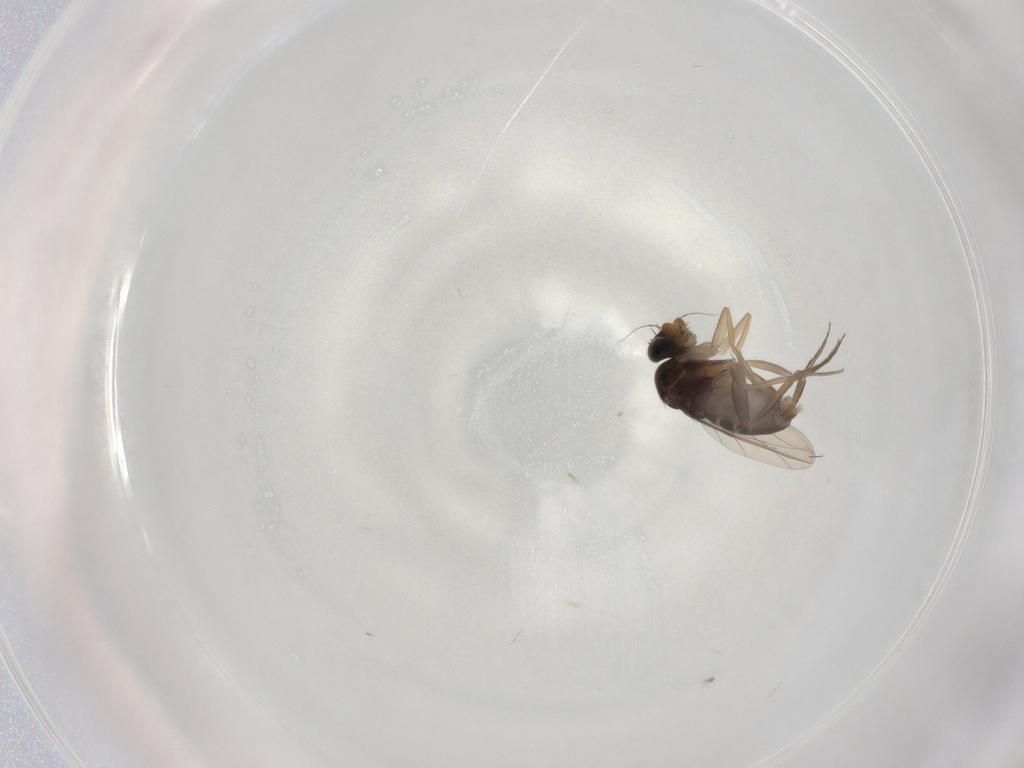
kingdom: Animalia
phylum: Arthropoda
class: Insecta
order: Diptera
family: Phoridae
